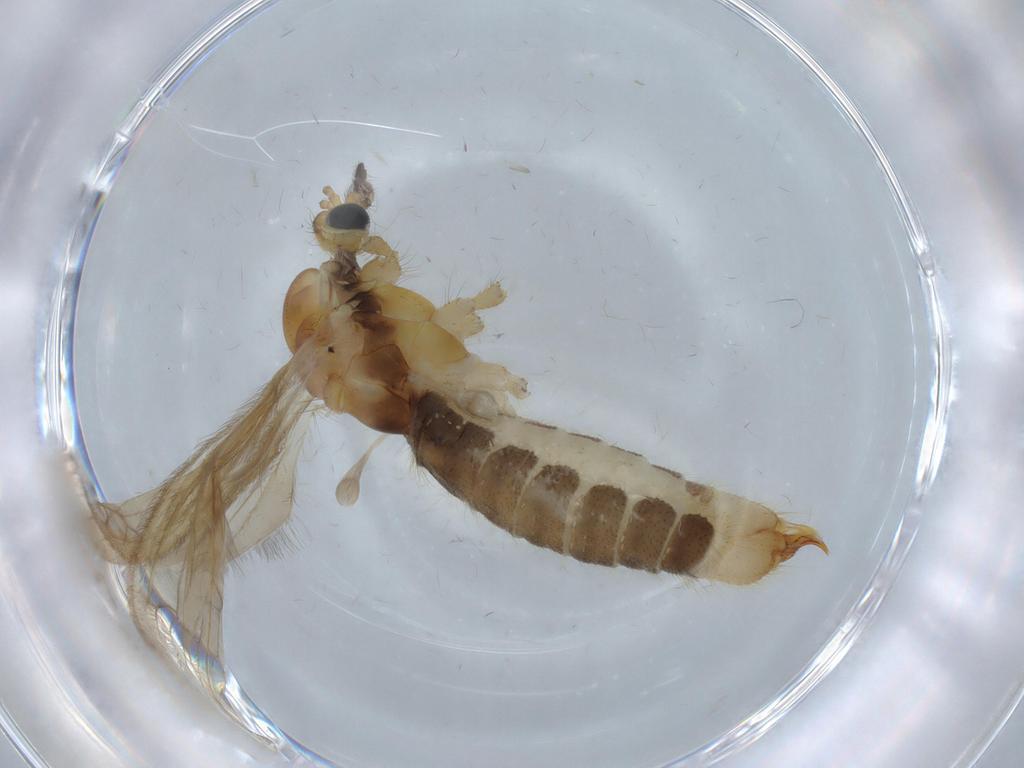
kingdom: Animalia
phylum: Arthropoda
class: Insecta
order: Diptera
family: Limoniidae
